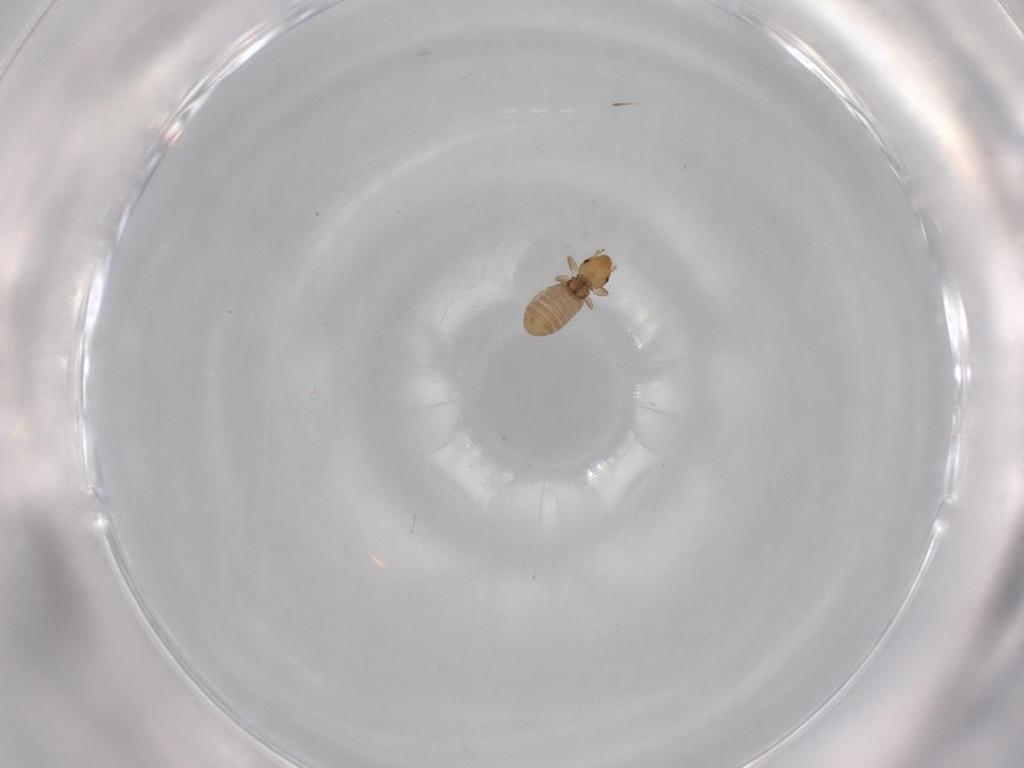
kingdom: Animalia
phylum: Arthropoda
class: Insecta
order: Psocodea
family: Liposcelididae
